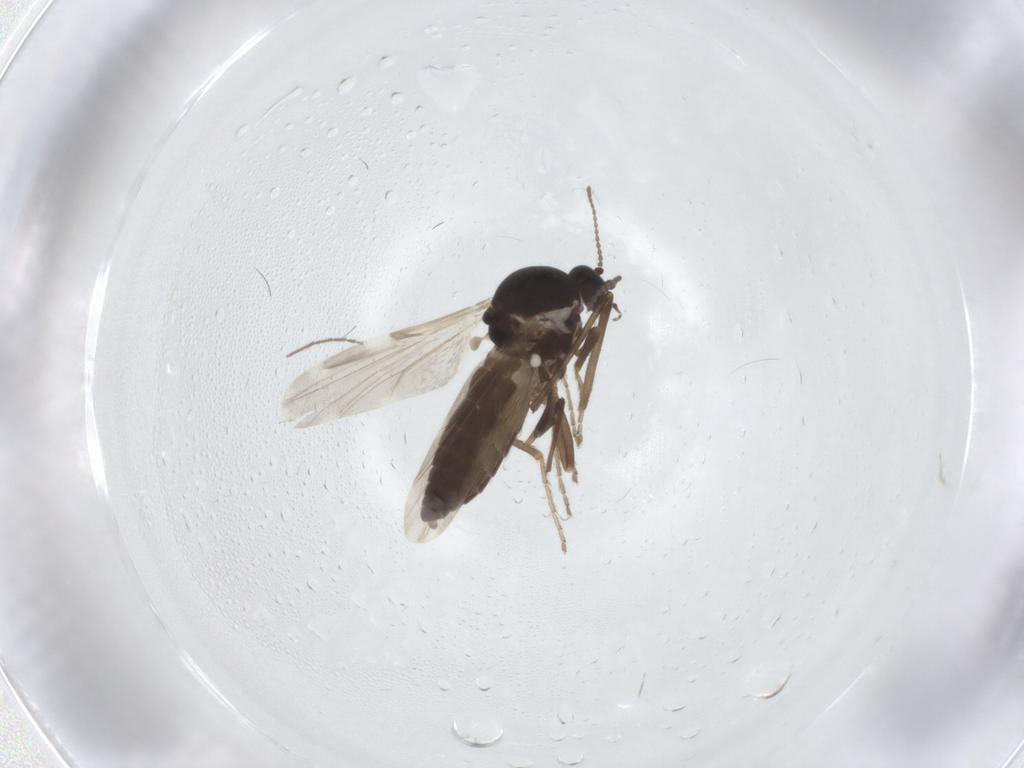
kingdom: Animalia
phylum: Arthropoda
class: Insecta
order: Diptera
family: Ceratopogonidae
